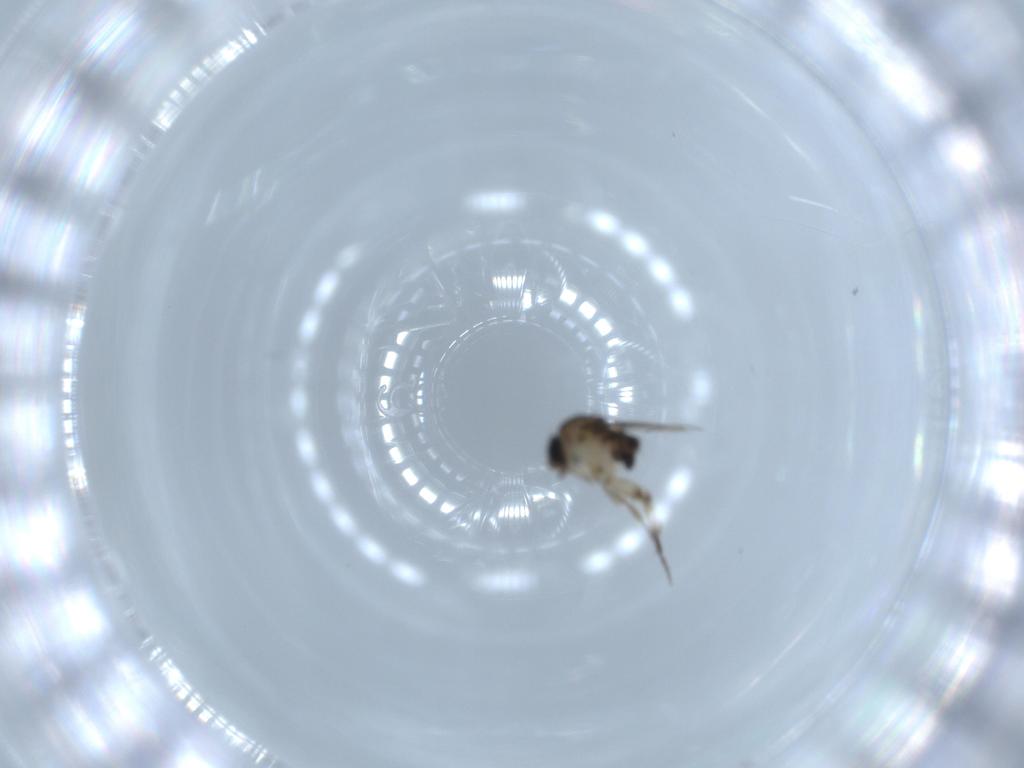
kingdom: Animalia
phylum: Arthropoda
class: Insecta
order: Diptera
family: Phoridae
